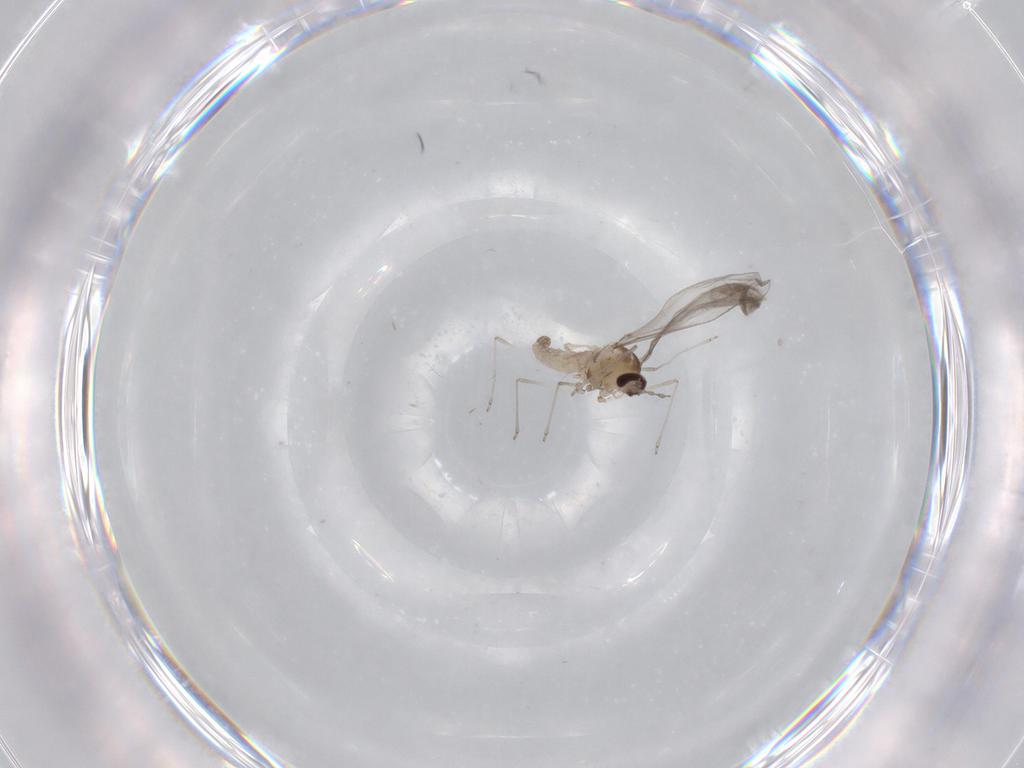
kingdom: Animalia
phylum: Arthropoda
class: Insecta
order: Diptera
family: Cecidomyiidae
